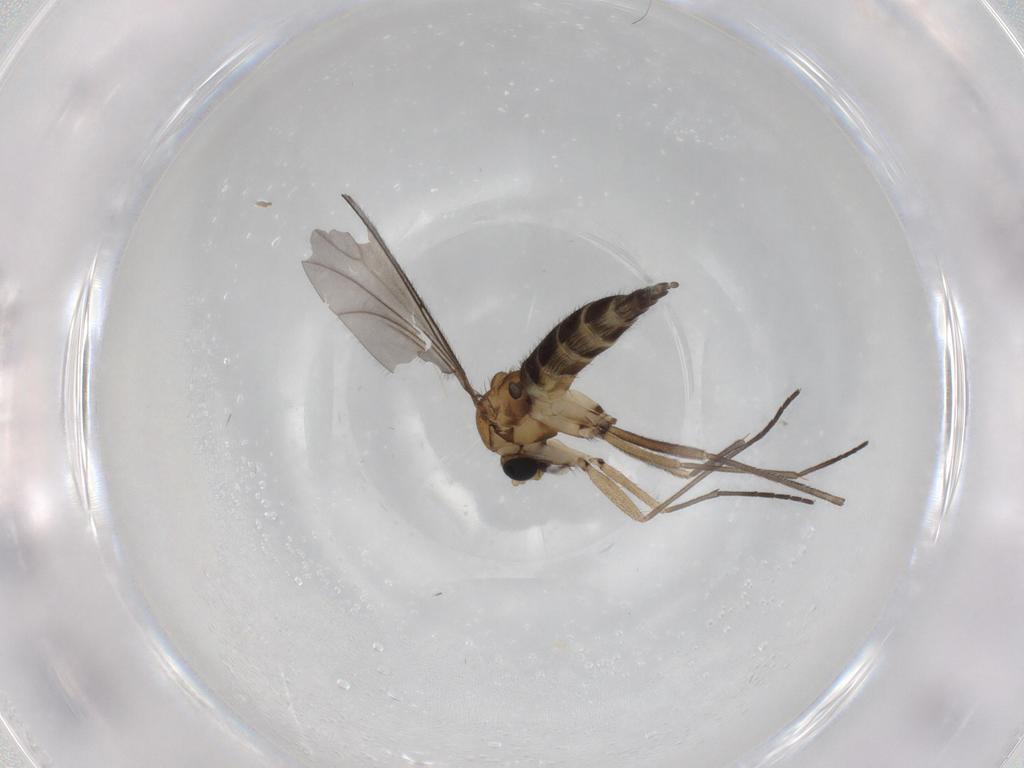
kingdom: Animalia
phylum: Arthropoda
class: Insecta
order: Diptera
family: Sciaridae
